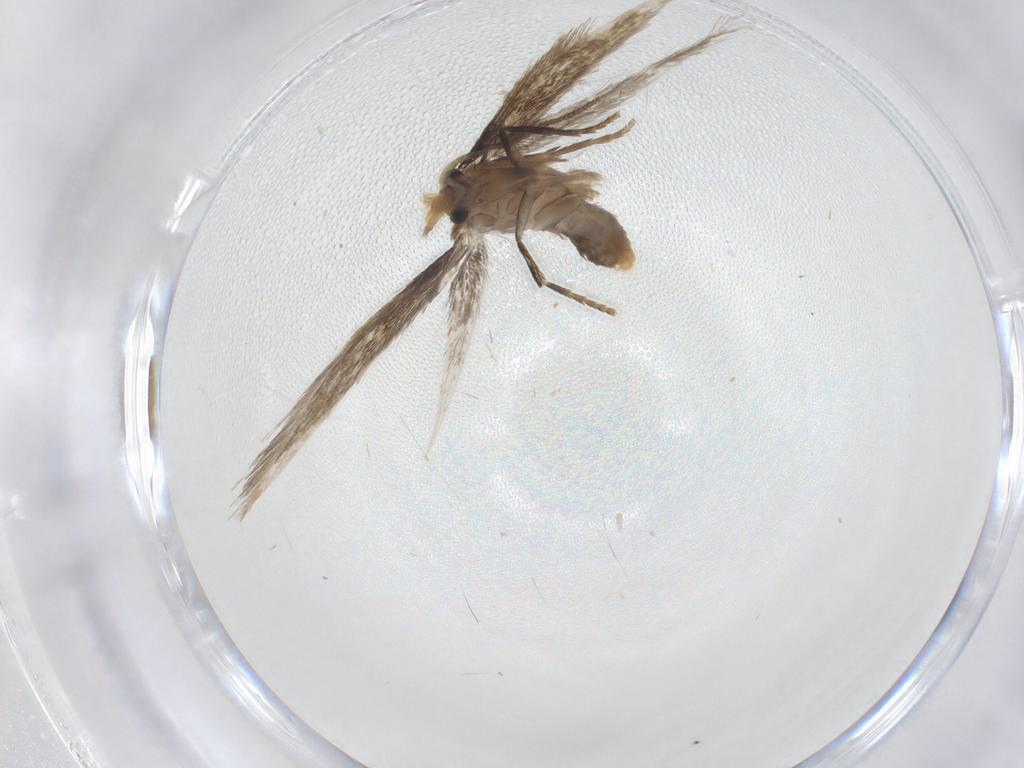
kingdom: Animalia
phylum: Arthropoda
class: Insecta
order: Lepidoptera
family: Nepticulidae
